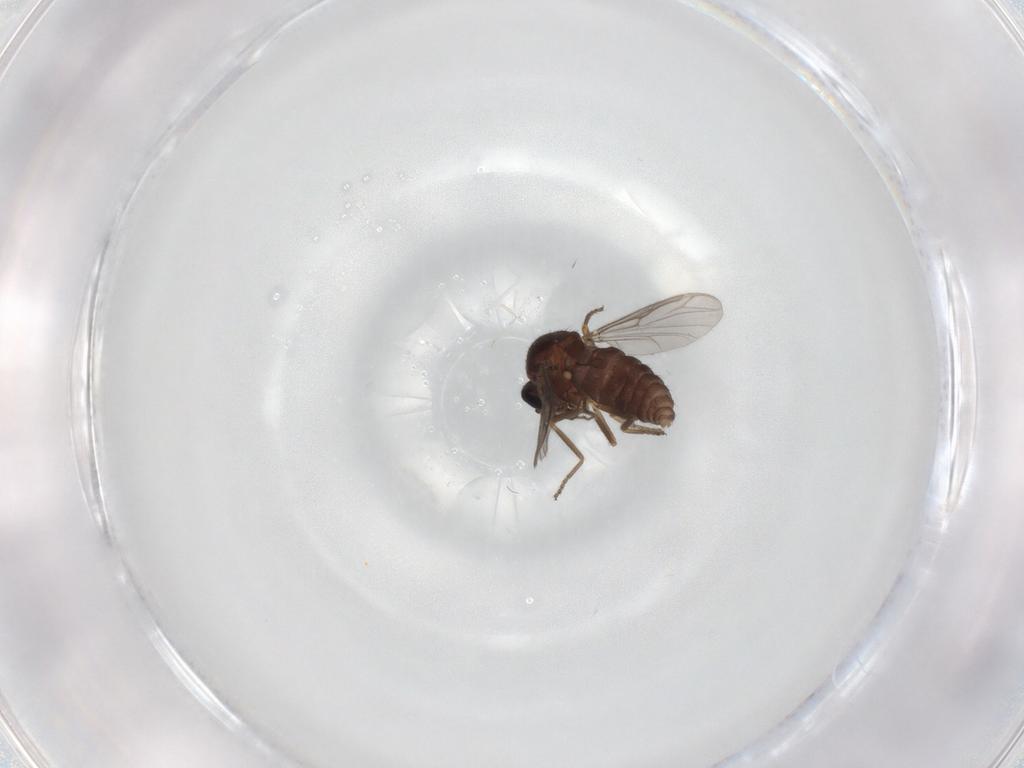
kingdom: Animalia
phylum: Arthropoda
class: Insecta
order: Diptera
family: Ceratopogonidae
